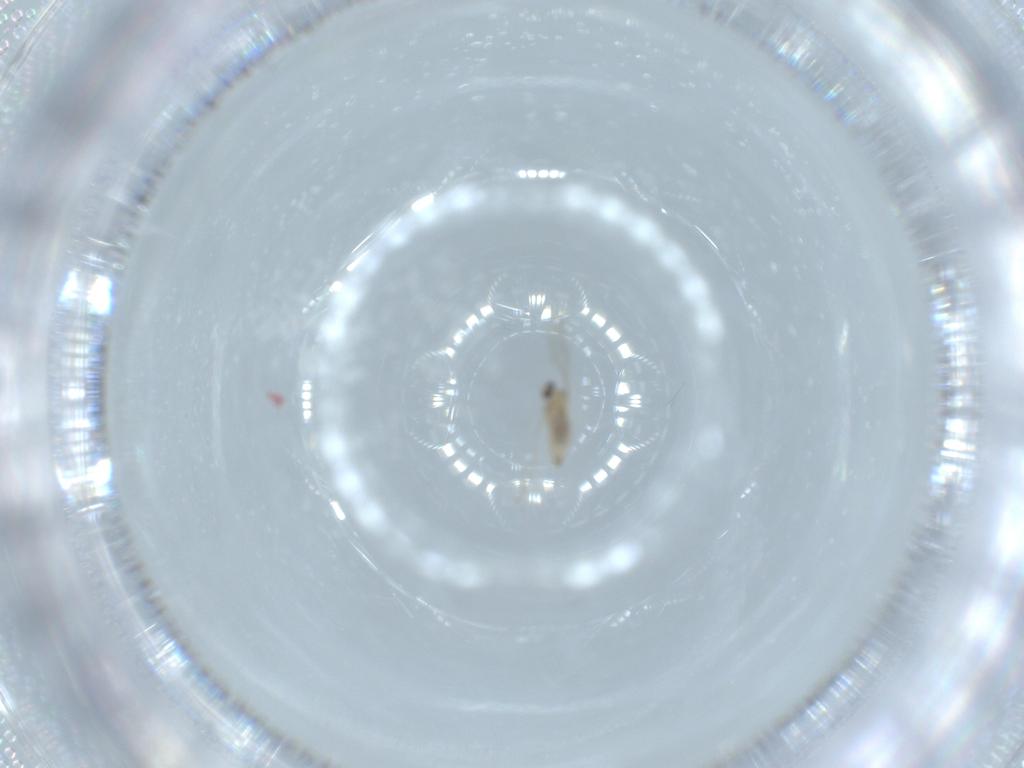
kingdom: Animalia
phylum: Arthropoda
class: Insecta
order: Diptera
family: Cecidomyiidae
